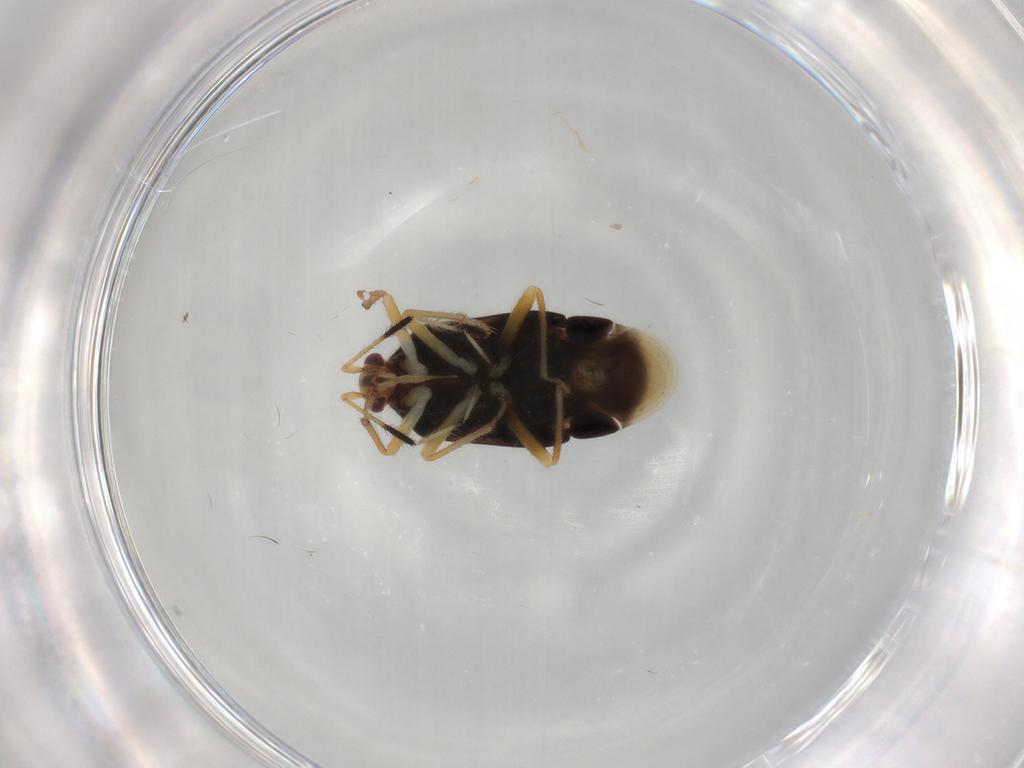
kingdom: Animalia
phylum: Arthropoda
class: Insecta
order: Hemiptera
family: Miridae
